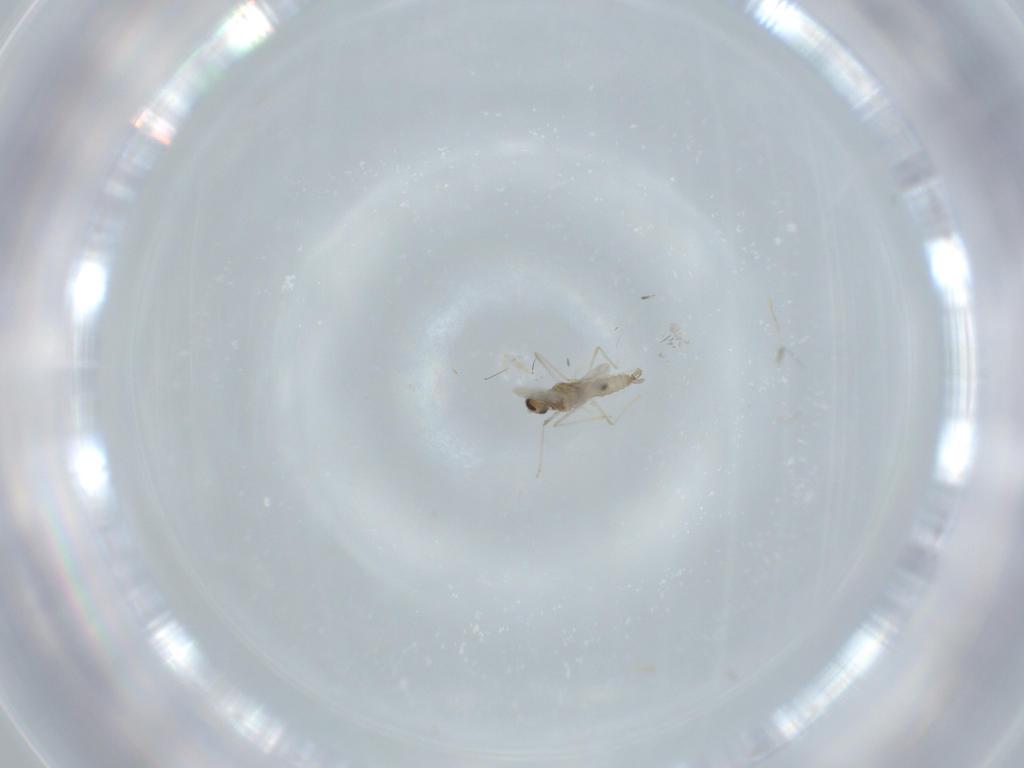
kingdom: Animalia
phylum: Arthropoda
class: Insecta
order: Diptera
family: Cecidomyiidae
